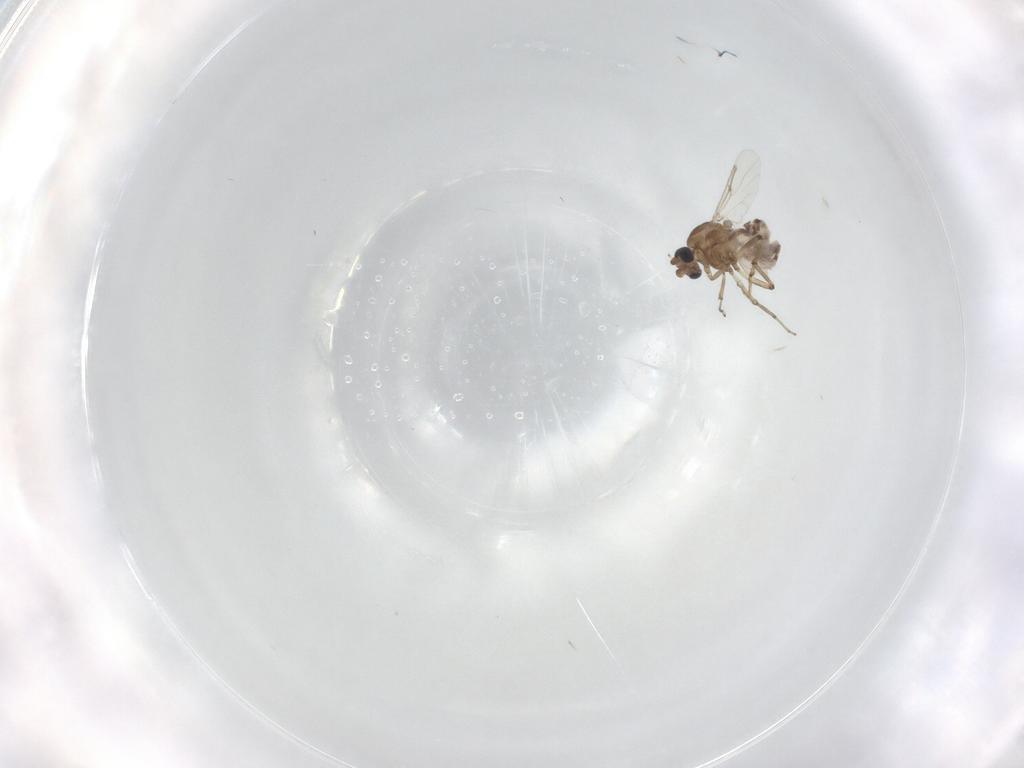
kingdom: Animalia
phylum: Arthropoda
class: Insecta
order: Diptera
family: Ceratopogonidae
